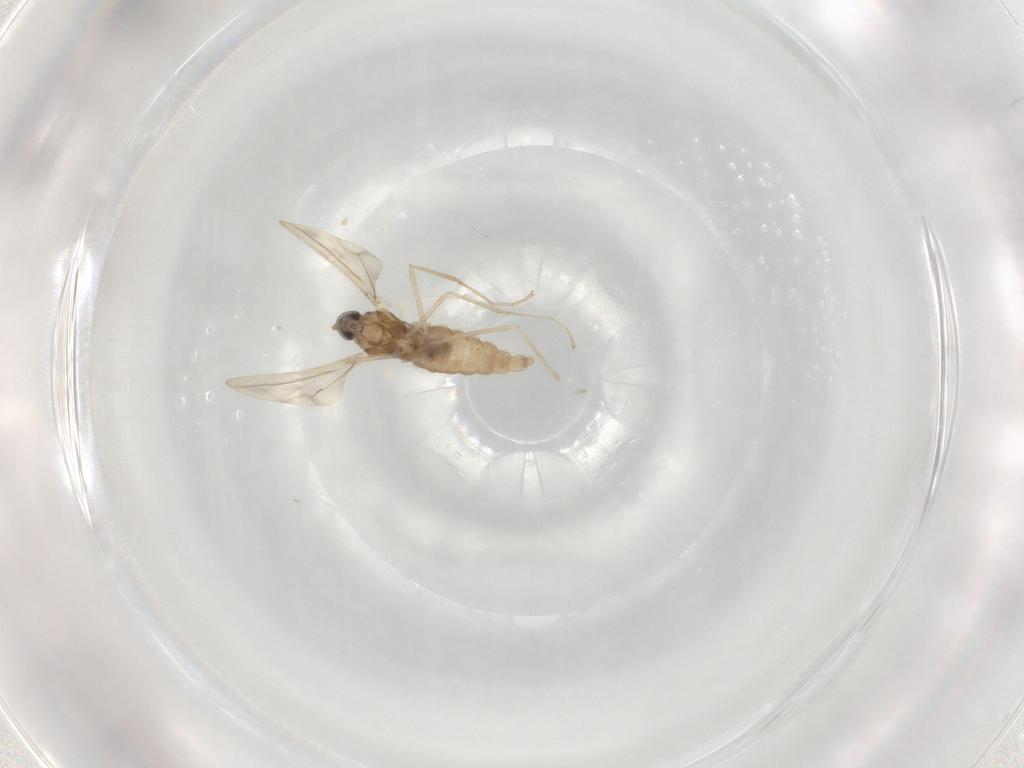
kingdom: Animalia
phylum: Arthropoda
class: Insecta
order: Diptera
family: Cecidomyiidae
